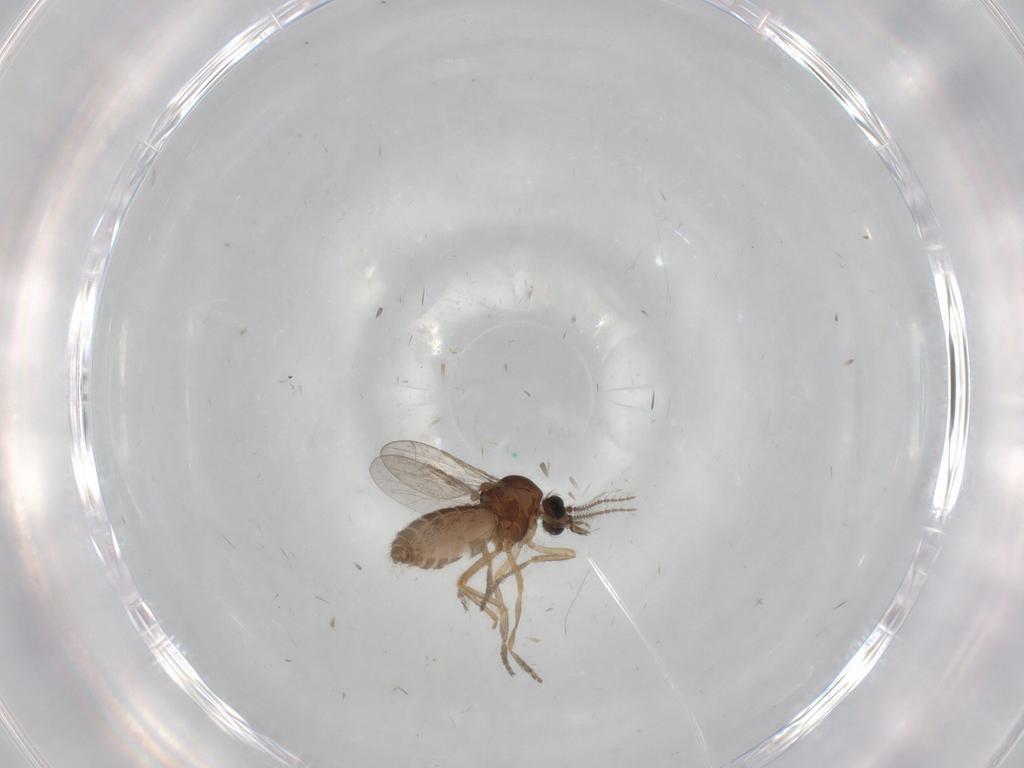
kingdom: Animalia
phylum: Arthropoda
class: Insecta
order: Diptera
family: Ceratopogonidae
